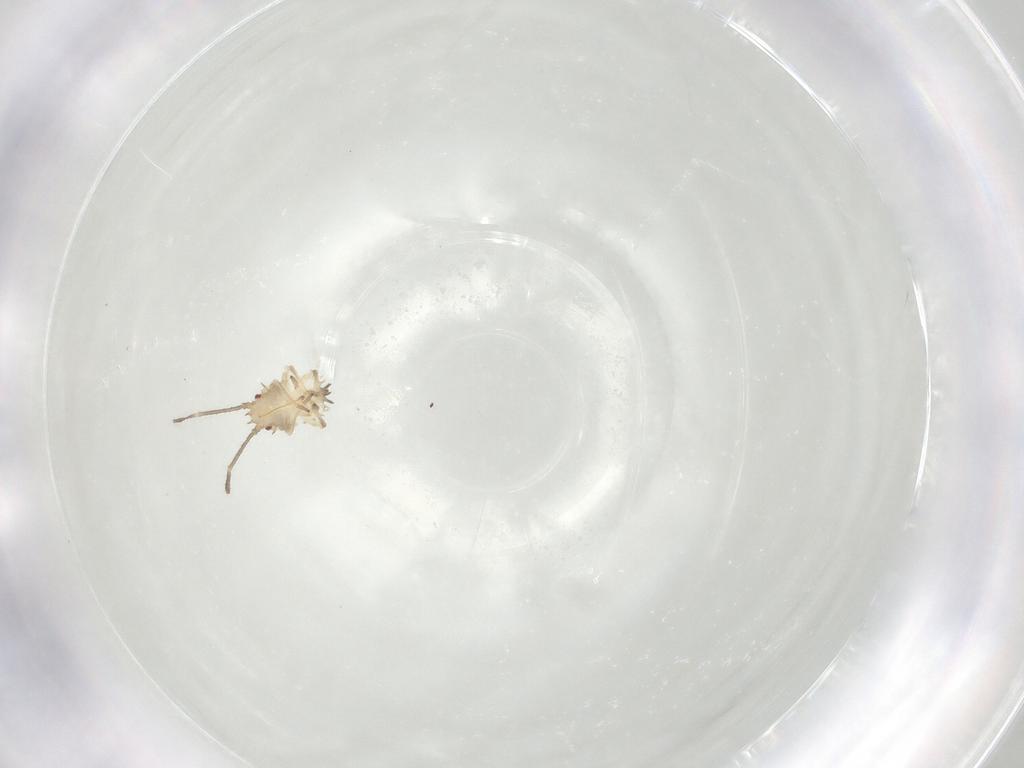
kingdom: Animalia
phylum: Arthropoda
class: Insecta
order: Hemiptera
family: Tingidae
